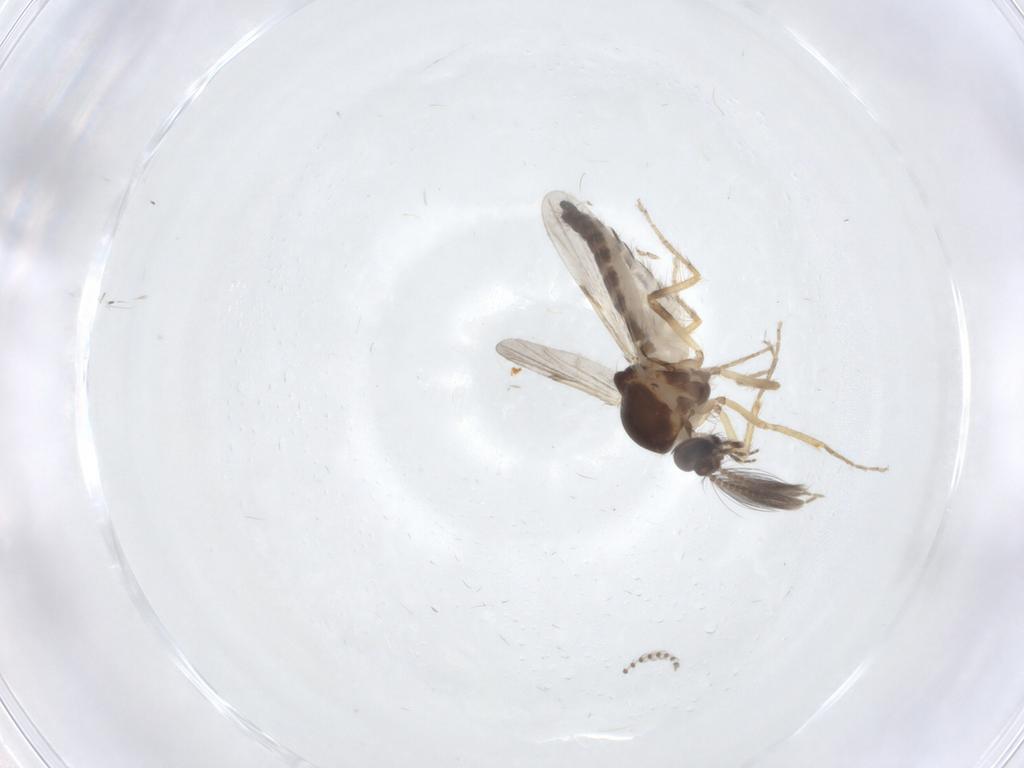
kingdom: Animalia
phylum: Arthropoda
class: Insecta
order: Diptera
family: Ceratopogonidae
